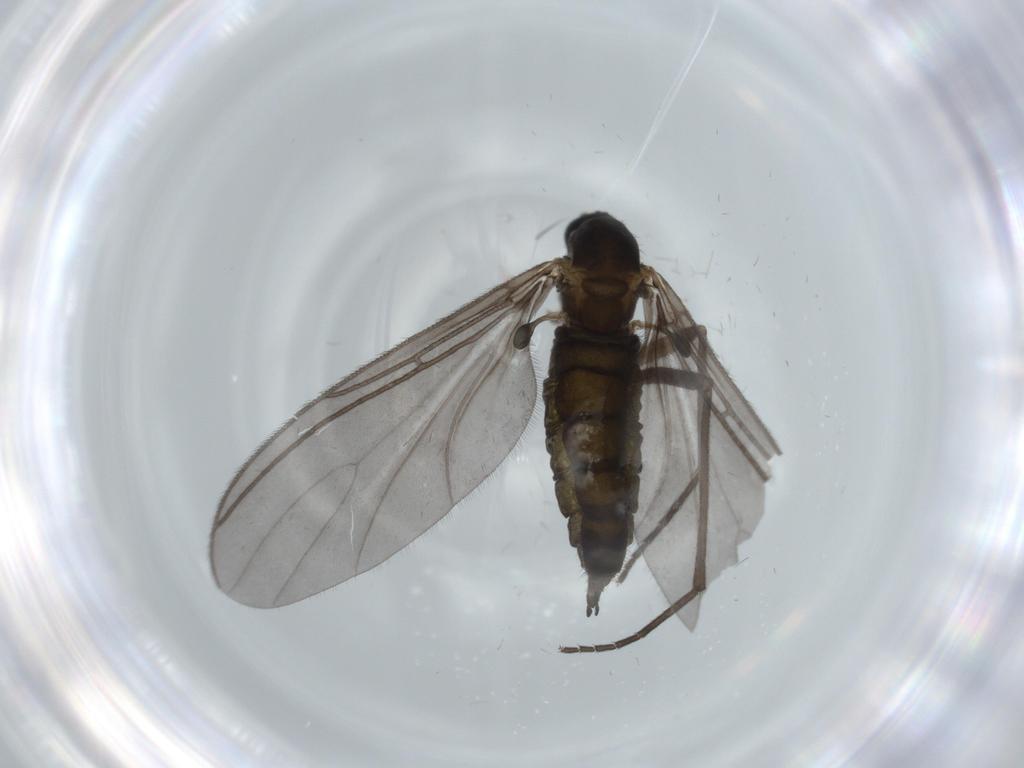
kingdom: Animalia
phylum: Arthropoda
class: Insecta
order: Diptera
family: Sciaridae
